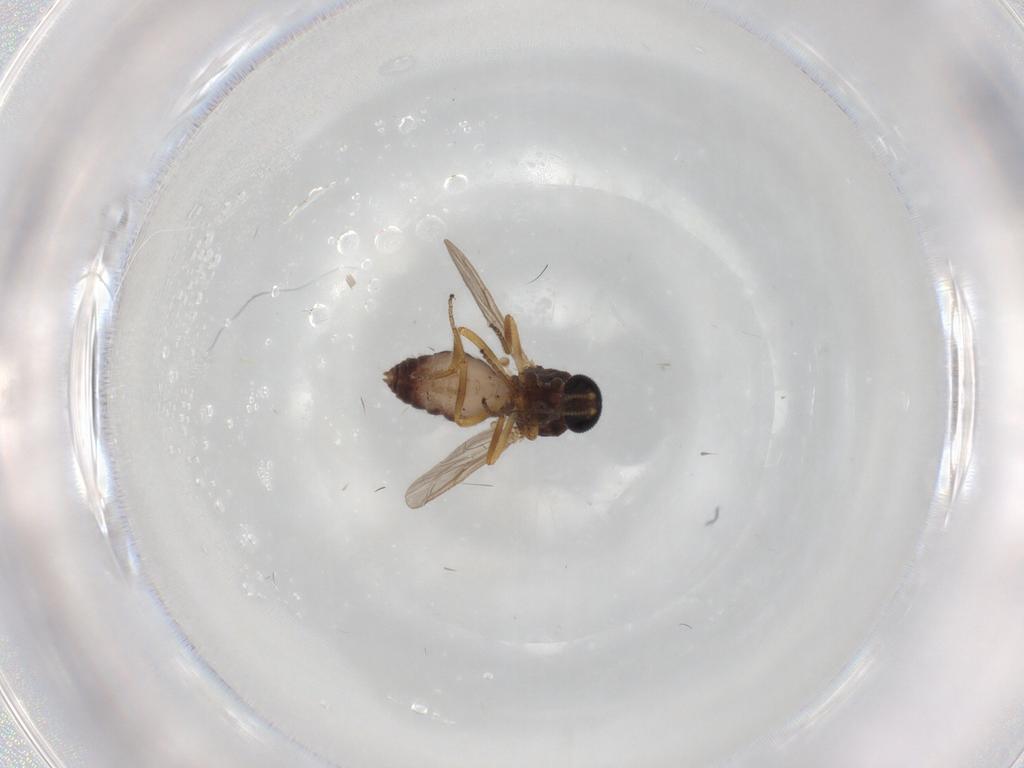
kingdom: Animalia
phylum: Arthropoda
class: Insecta
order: Diptera
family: Ceratopogonidae
